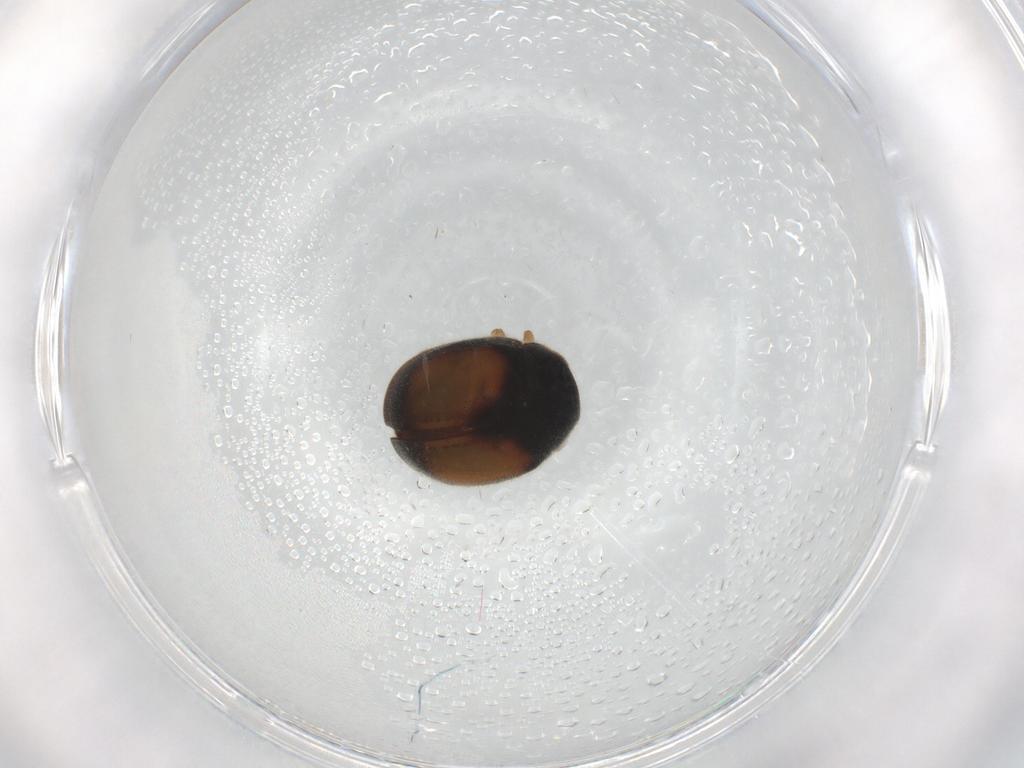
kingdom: Animalia
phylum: Arthropoda
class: Insecta
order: Coleoptera
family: Coccinellidae
